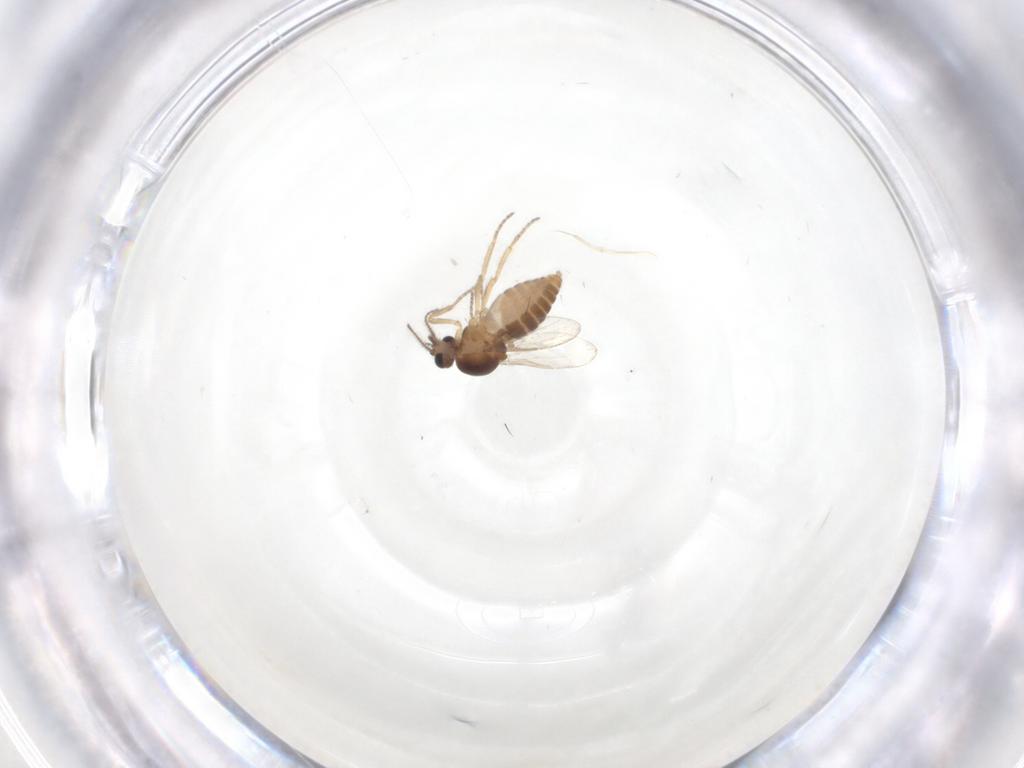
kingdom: Animalia
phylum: Arthropoda
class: Insecta
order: Diptera
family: Ceratopogonidae
